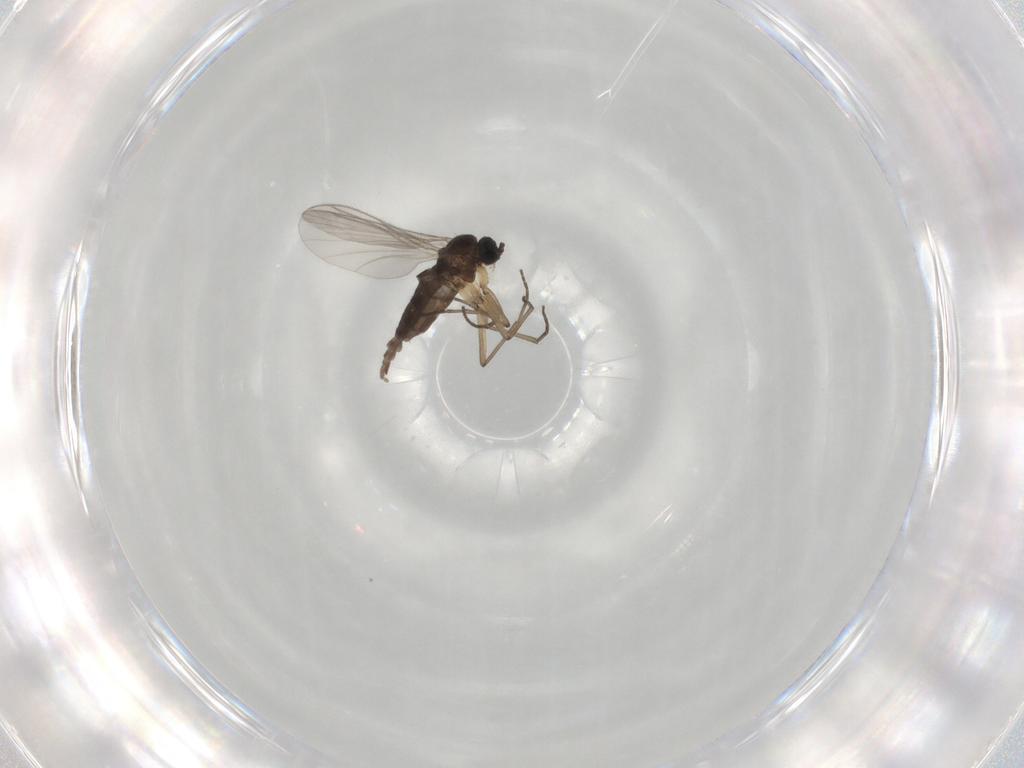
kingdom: Animalia
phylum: Arthropoda
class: Insecta
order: Diptera
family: Sciaridae
